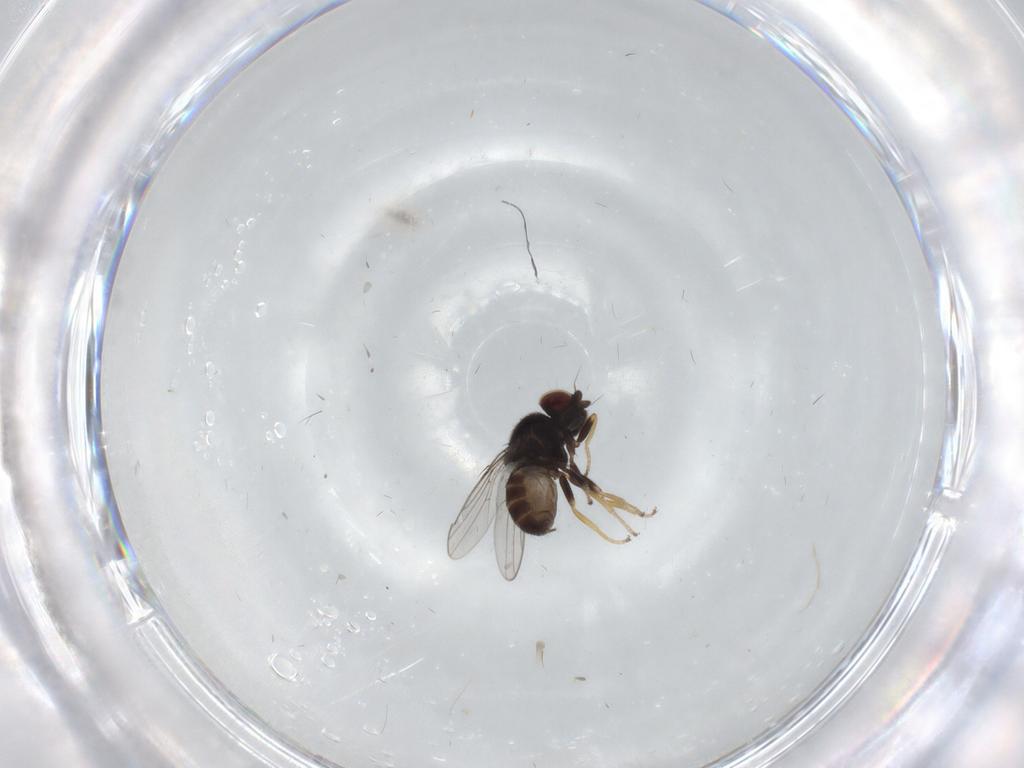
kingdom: Animalia
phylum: Arthropoda
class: Insecta
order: Diptera
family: Chloropidae
